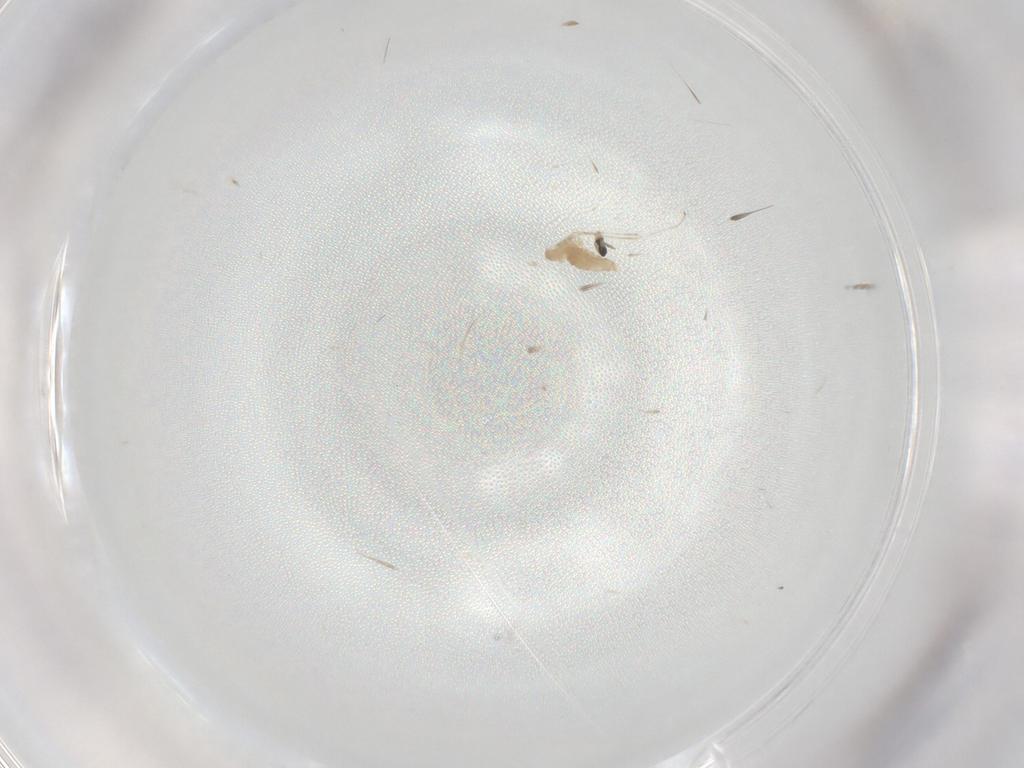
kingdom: Animalia
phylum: Arthropoda
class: Insecta
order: Diptera
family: Cecidomyiidae
